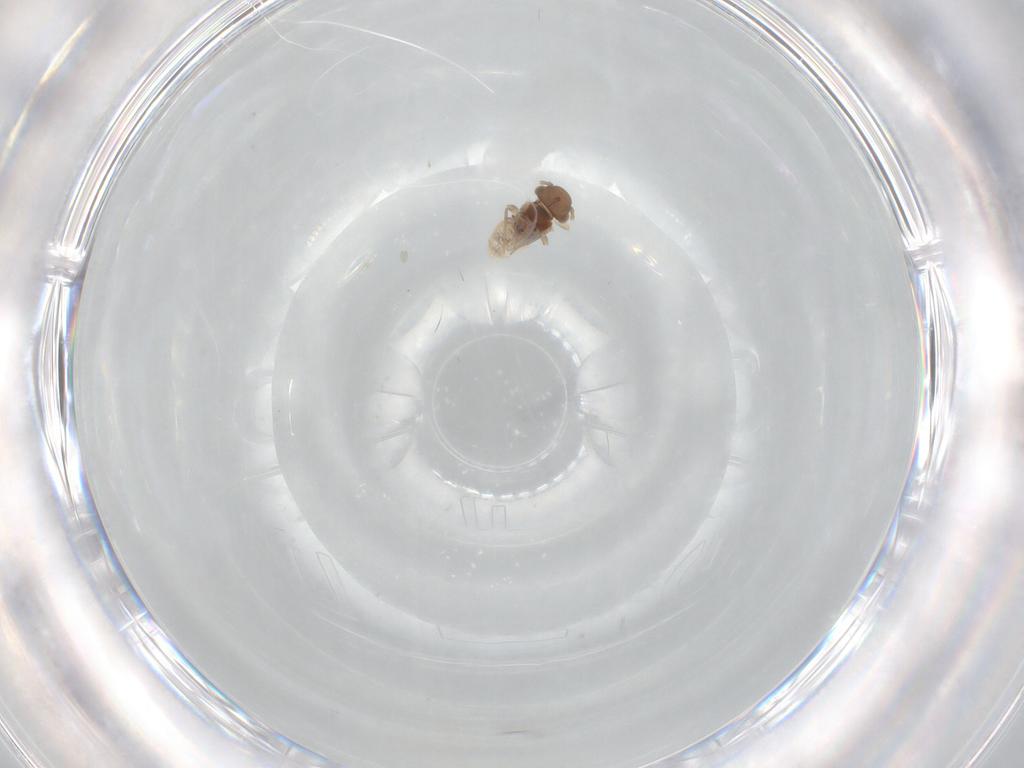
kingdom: Animalia
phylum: Arthropoda
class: Insecta
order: Psocodea
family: Peripsocidae
